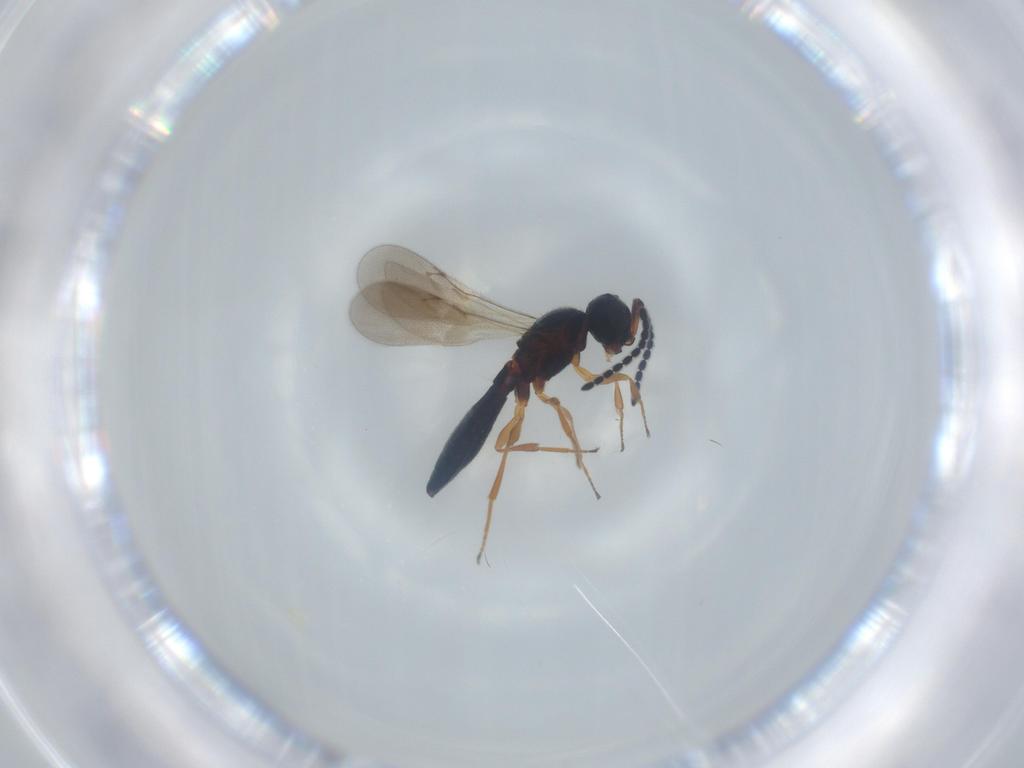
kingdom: Animalia
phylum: Arthropoda
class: Insecta
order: Hymenoptera
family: Scelionidae
